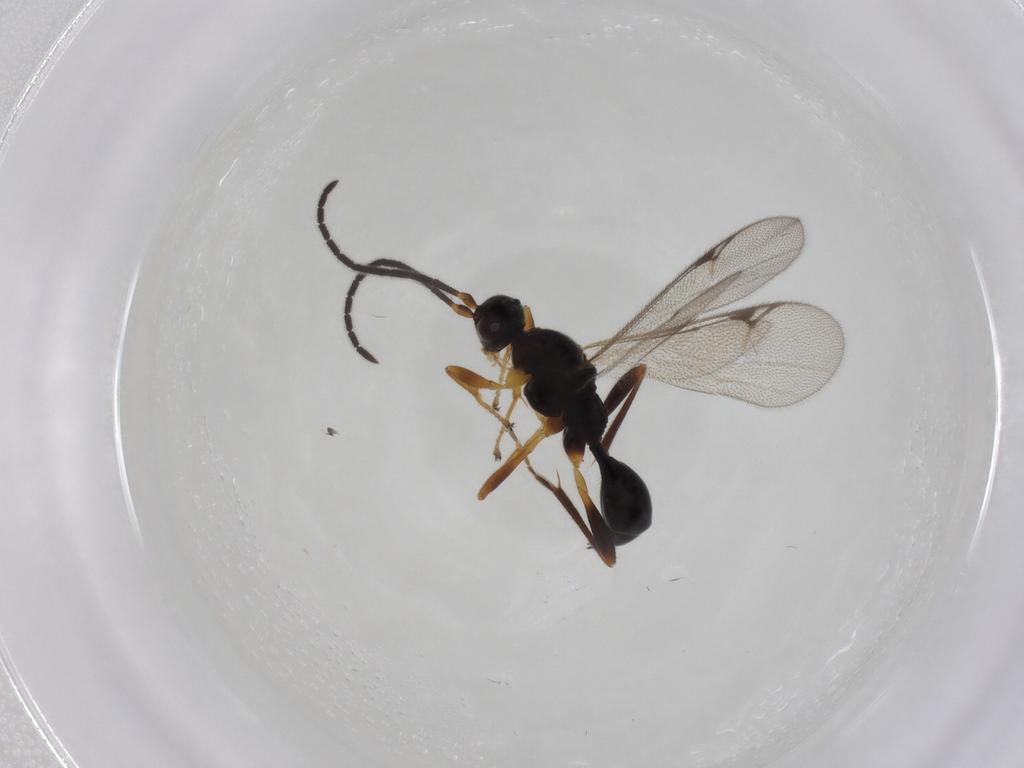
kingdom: Animalia
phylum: Arthropoda
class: Insecta
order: Hymenoptera
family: Proctotrupidae
